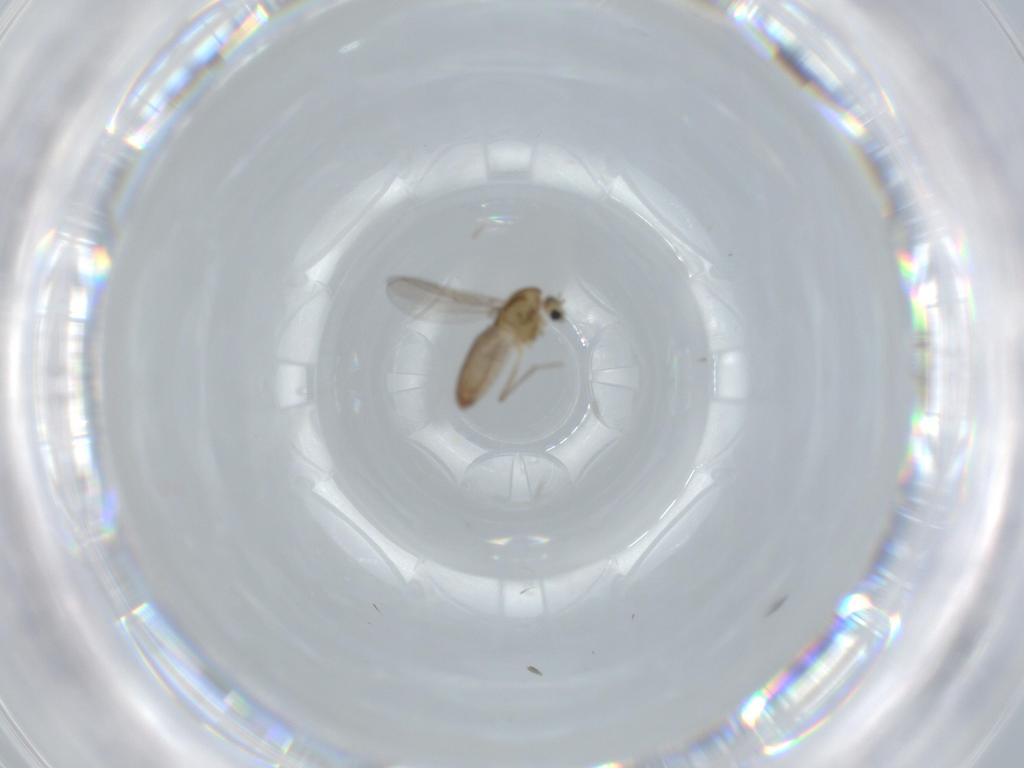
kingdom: Animalia
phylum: Arthropoda
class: Insecta
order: Diptera
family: Chironomidae
